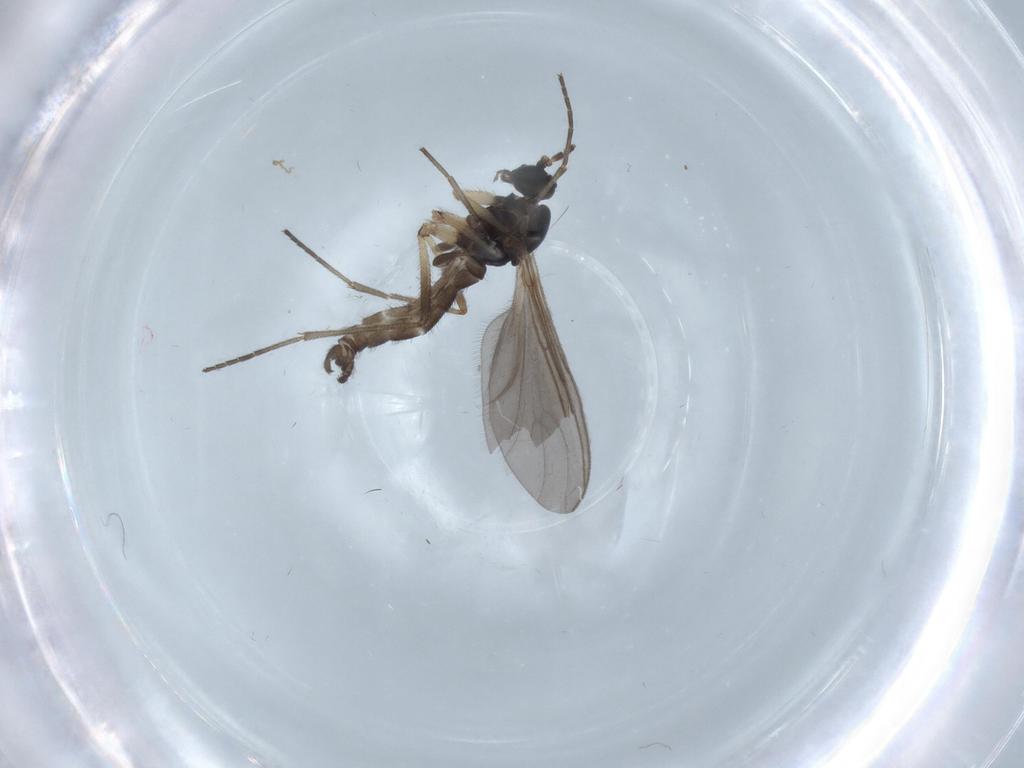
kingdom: Animalia
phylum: Arthropoda
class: Insecta
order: Diptera
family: Sciaridae
